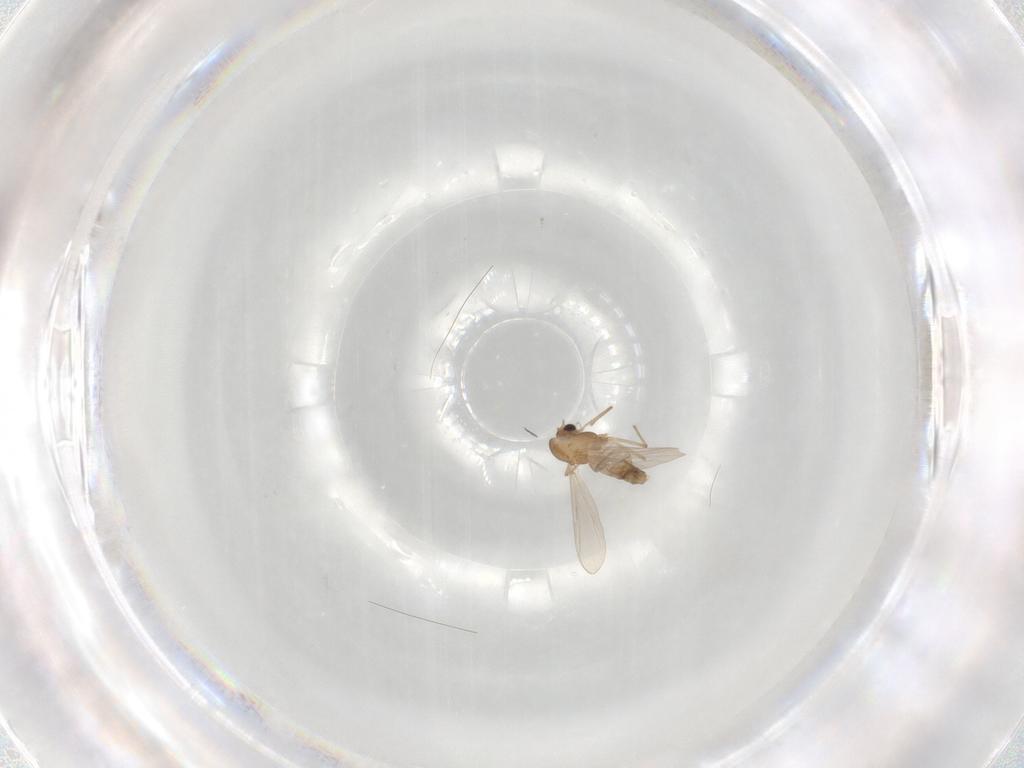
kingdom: Animalia
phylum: Arthropoda
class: Insecta
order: Diptera
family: Chironomidae
